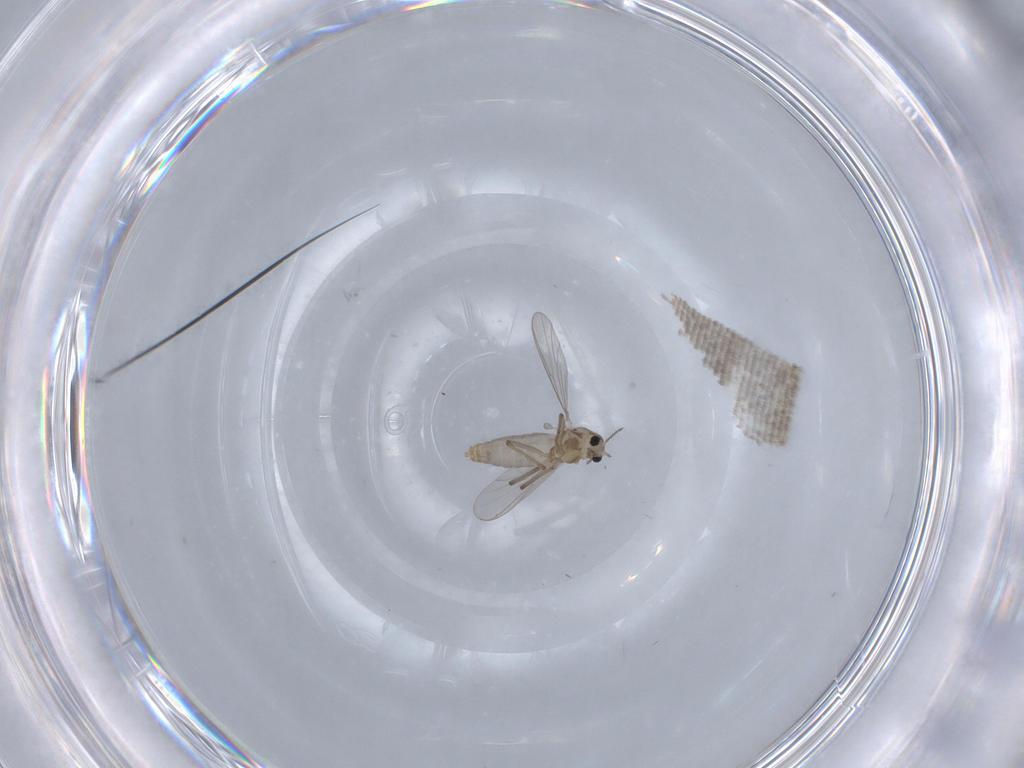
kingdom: Animalia
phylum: Arthropoda
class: Insecta
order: Diptera
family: Chironomidae
